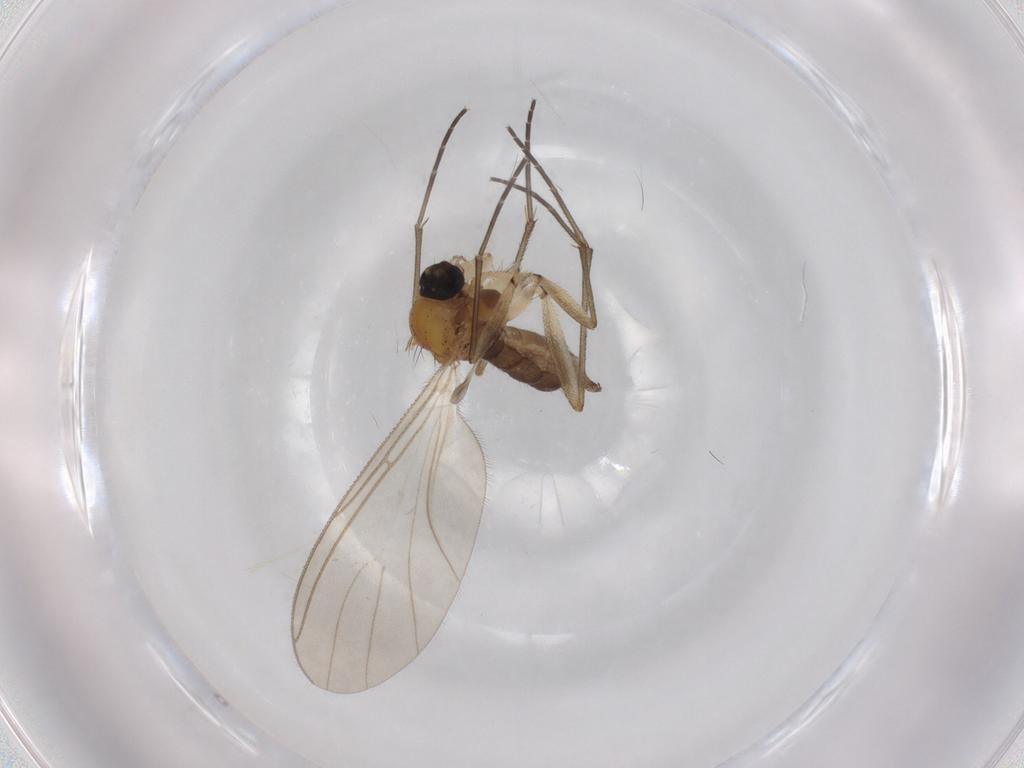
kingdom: Animalia
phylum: Arthropoda
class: Insecta
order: Diptera
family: Sciaridae
